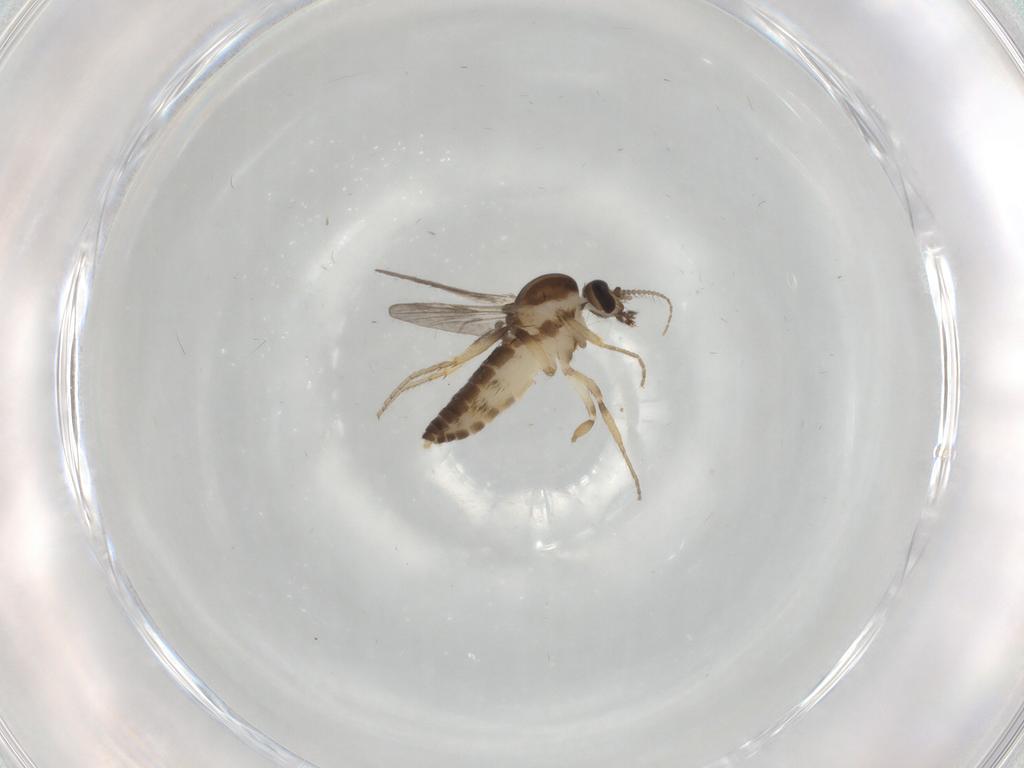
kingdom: Animalia
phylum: Arthropoda
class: Insecta
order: Diptera
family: Ceratopogonidae
